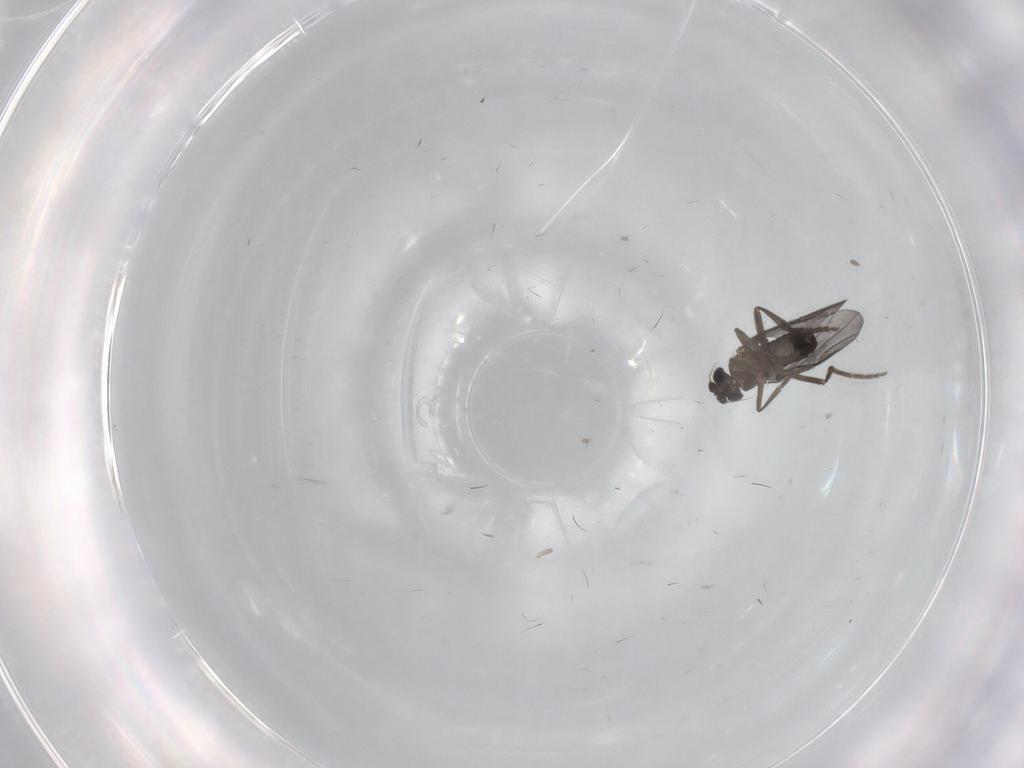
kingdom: Animalia
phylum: Arthropoda
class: Insecta
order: Diptera
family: Phoridae
